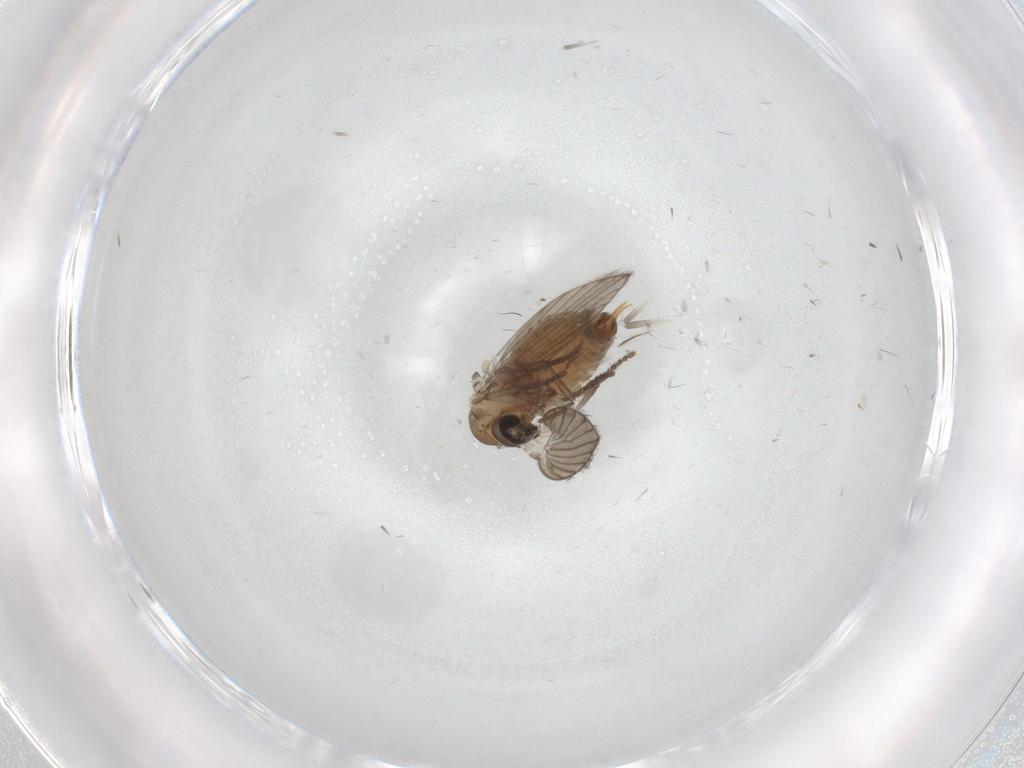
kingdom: Animalia
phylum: Arthropoda
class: Insecta
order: Diptera
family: Psychodidae
